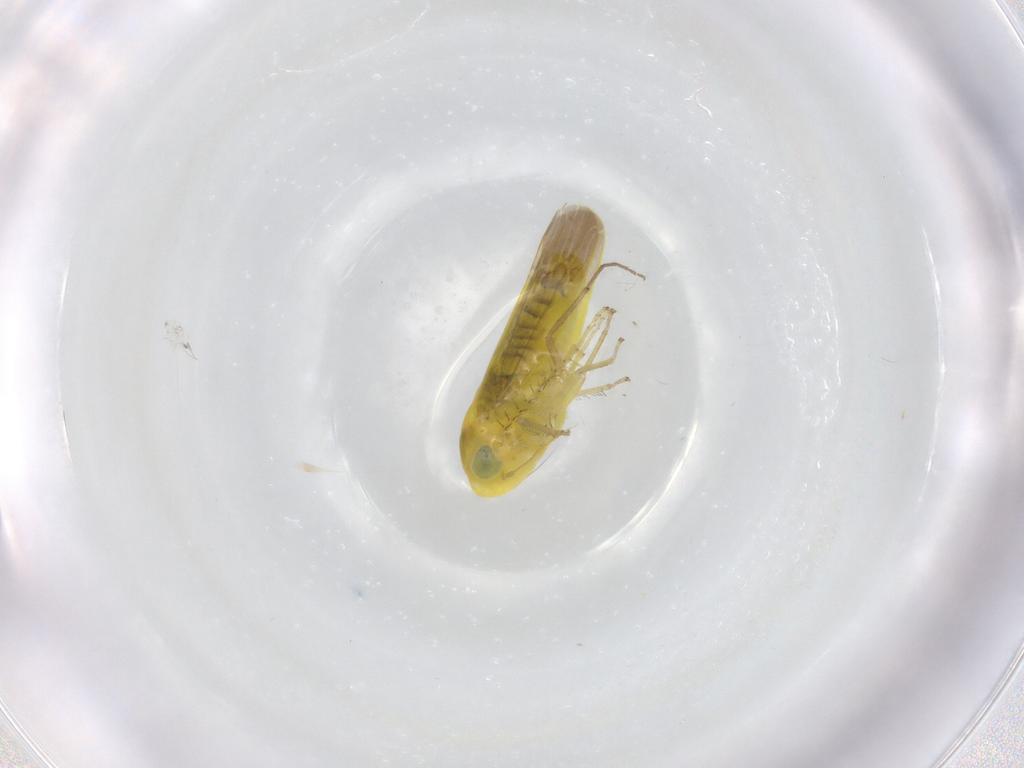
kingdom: Animalia
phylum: Arthropoda
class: Insecta
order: Hemiptera
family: Cicadellidae
